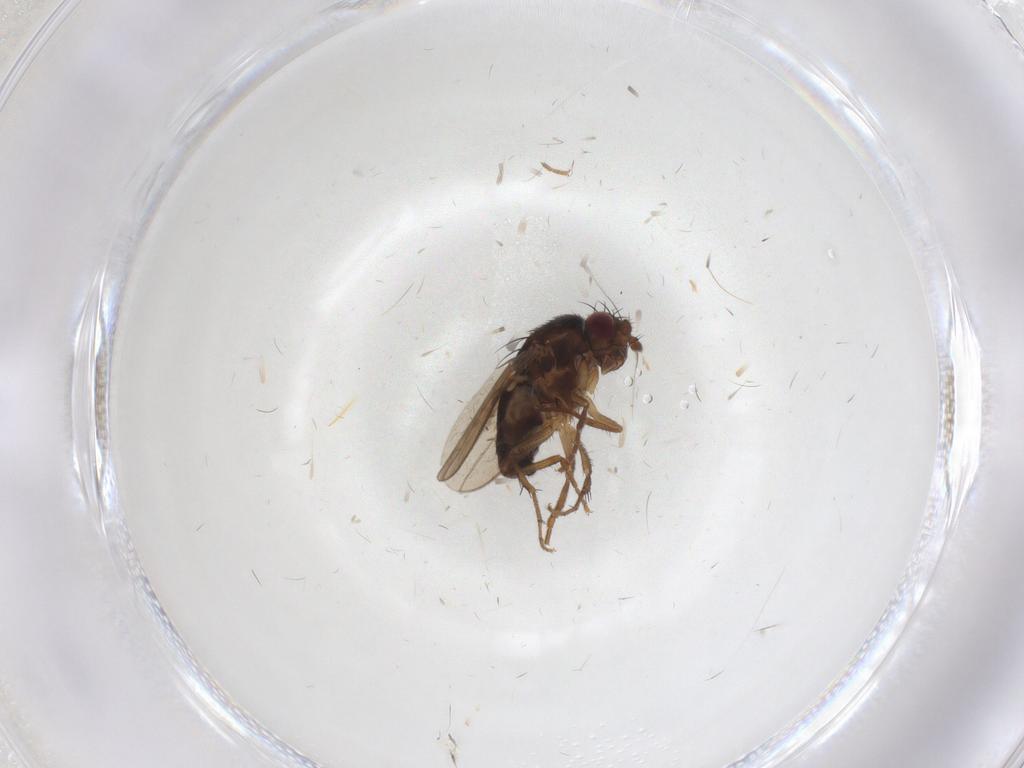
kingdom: Animalia
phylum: Arthropoda
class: Insecta
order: Diptera
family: Sphaeroceridae
